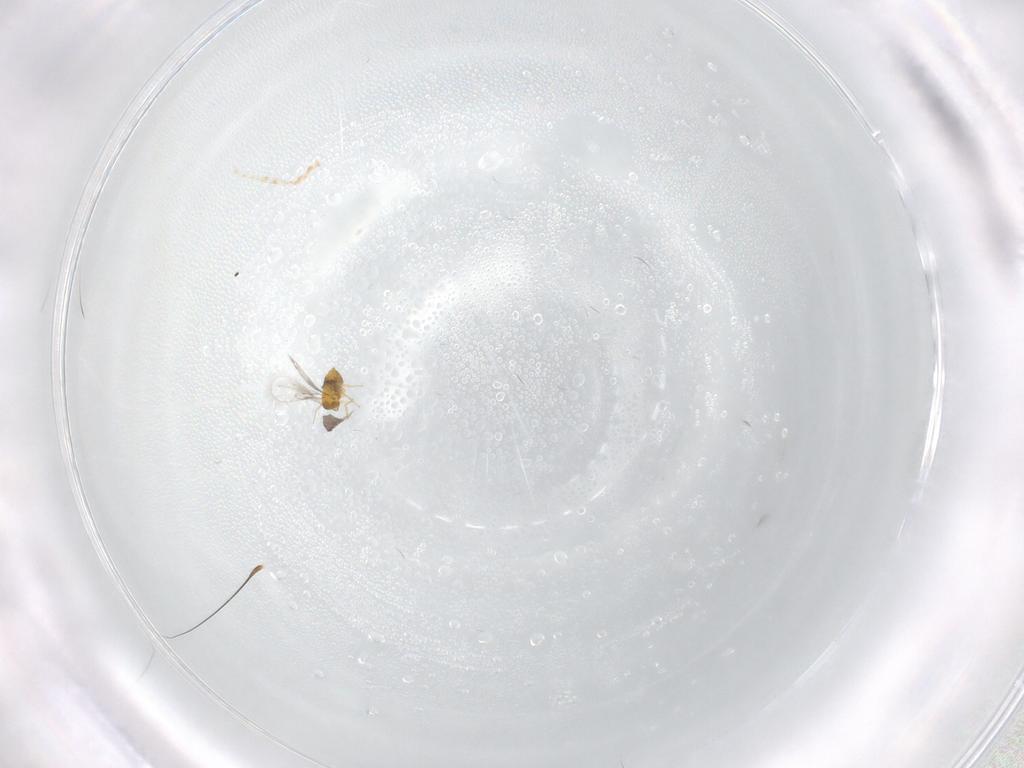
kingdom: Animalia
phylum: Arthropoda
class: Insecta
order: Hymenoptera
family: Trichogrammatidae
